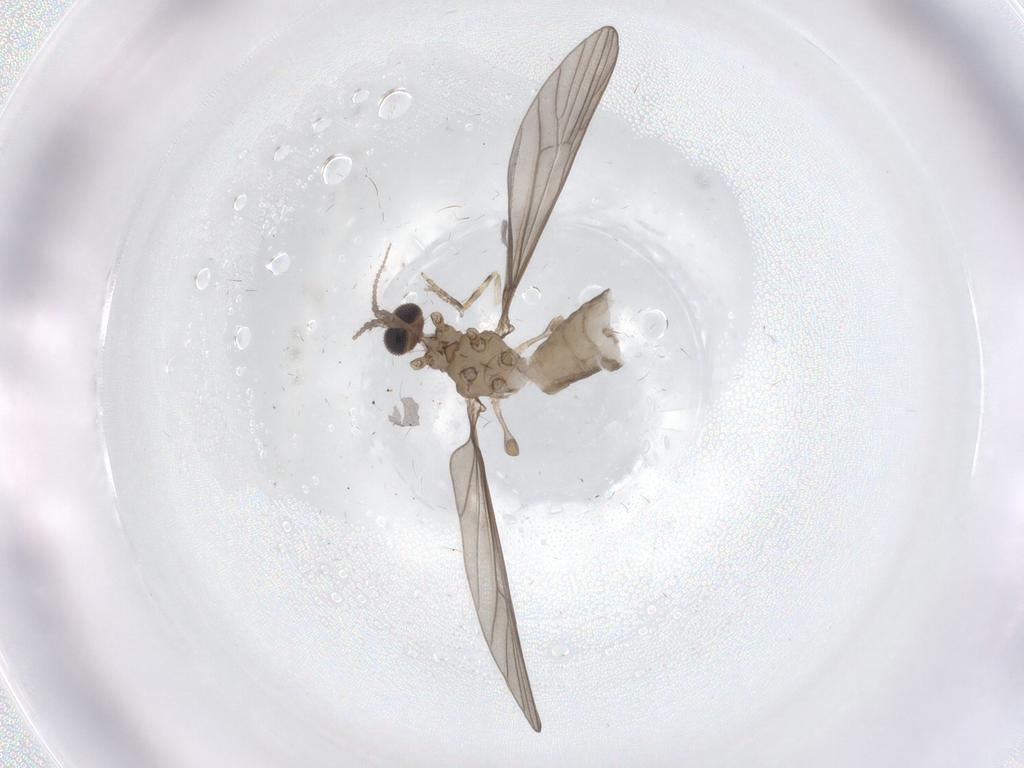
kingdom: Animalia
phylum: Arthropoda
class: Insecta
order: Diptera
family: Limoniidae
